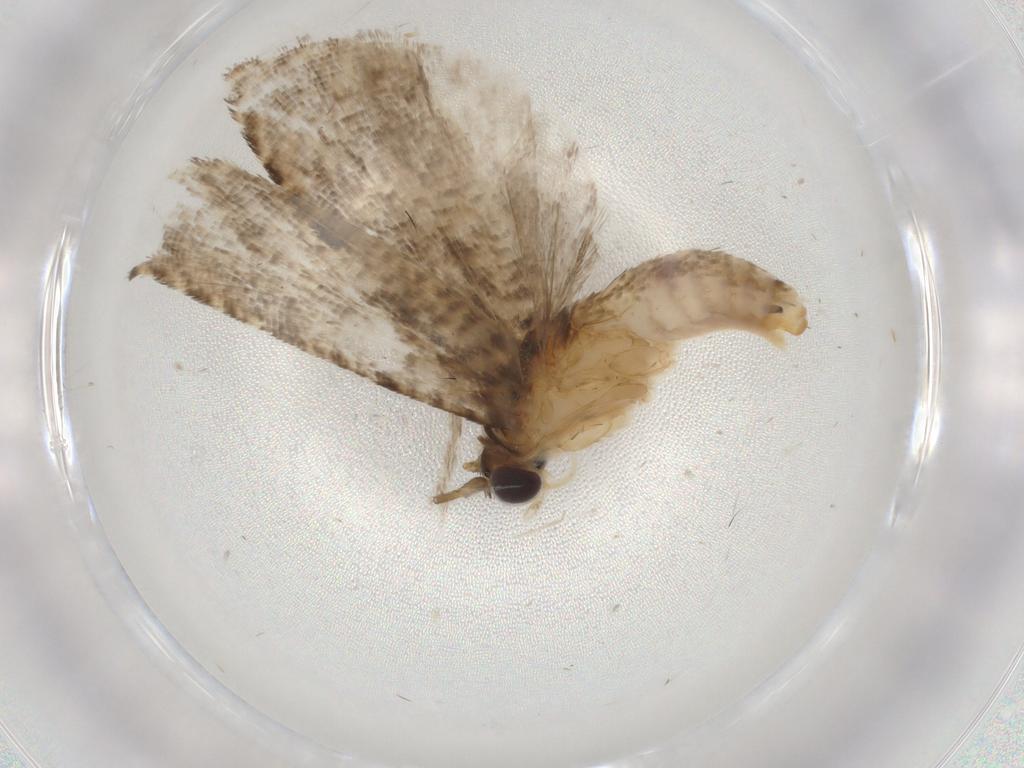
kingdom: Animalia
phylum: Arthropoda
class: Insecta
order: Lepidoptera
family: Tortricidae
